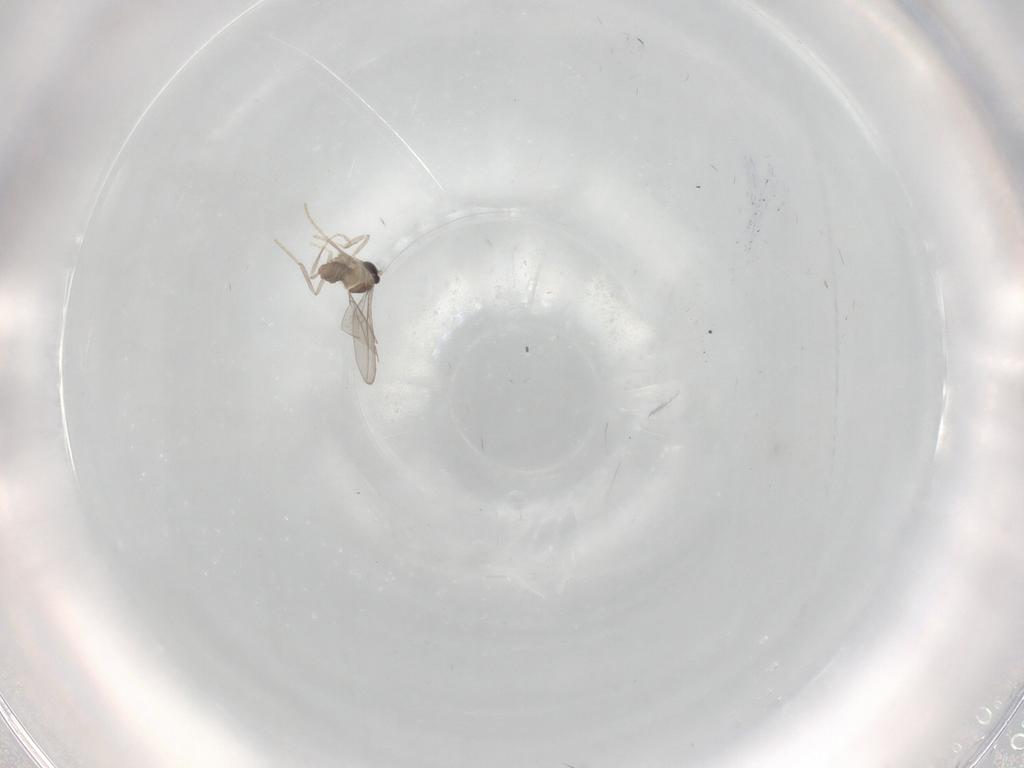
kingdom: Animalia
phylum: Arthropoda
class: Insecta
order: Diptera
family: Cecidomyiidae
